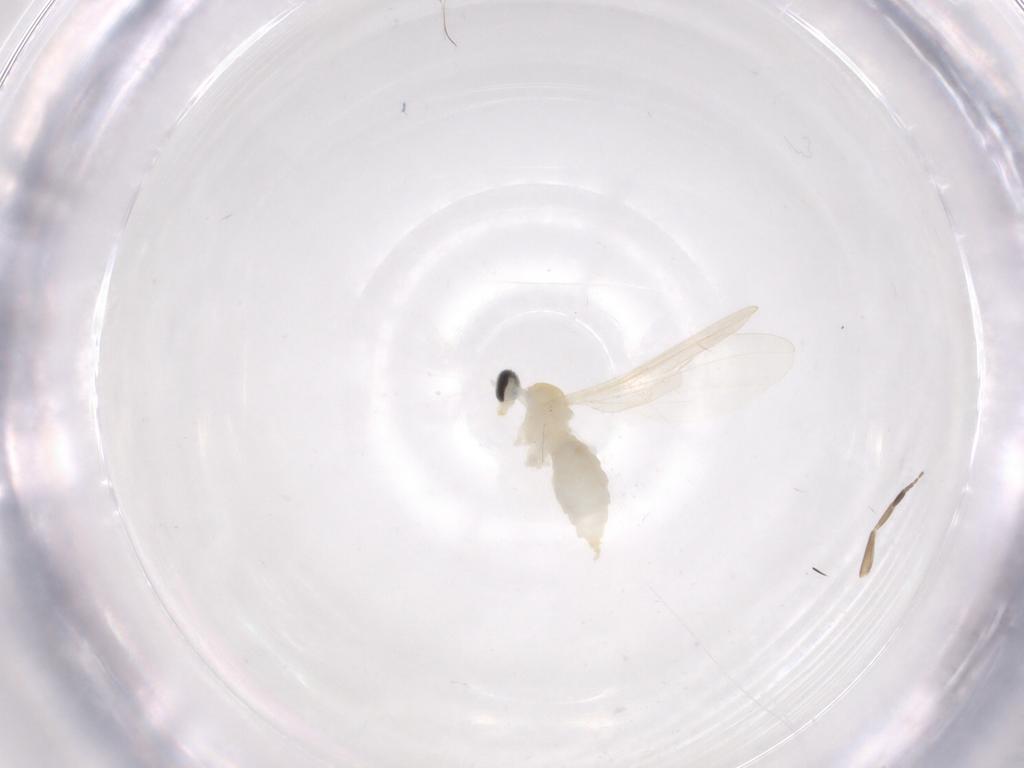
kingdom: Animalia
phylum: Arthropoda
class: Insecta
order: Diptera
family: Cecidomyiidae
